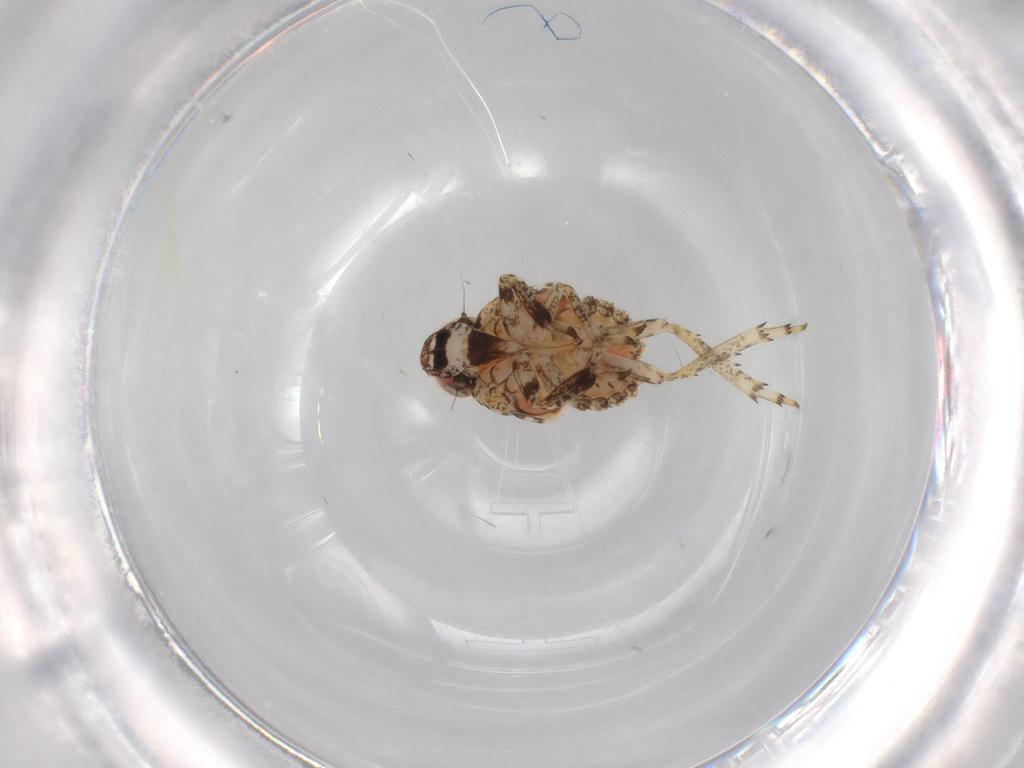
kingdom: Animalia
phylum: Arthropoda
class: Insecta
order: Hemiptera
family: Issidae
